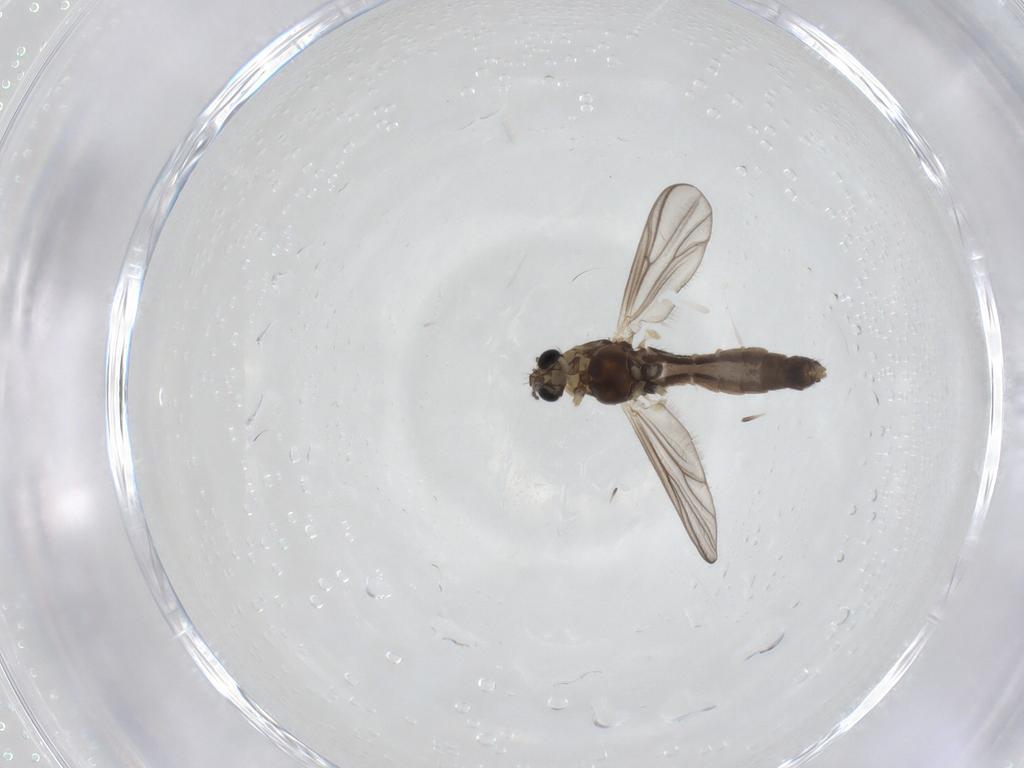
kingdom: Animalia
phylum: Arthropoda
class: Insecta
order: Diptera
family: Chironomidae
